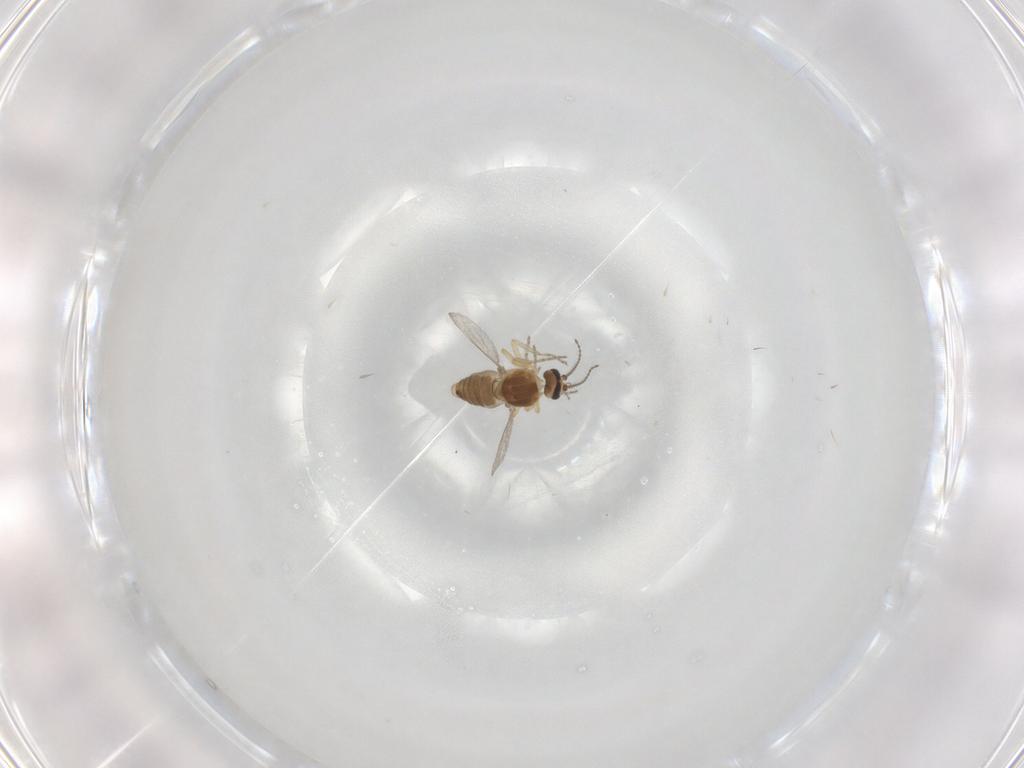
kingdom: Animalia
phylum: Arthropoda
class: Insecta
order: Diptera
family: Ceratopogonidae
